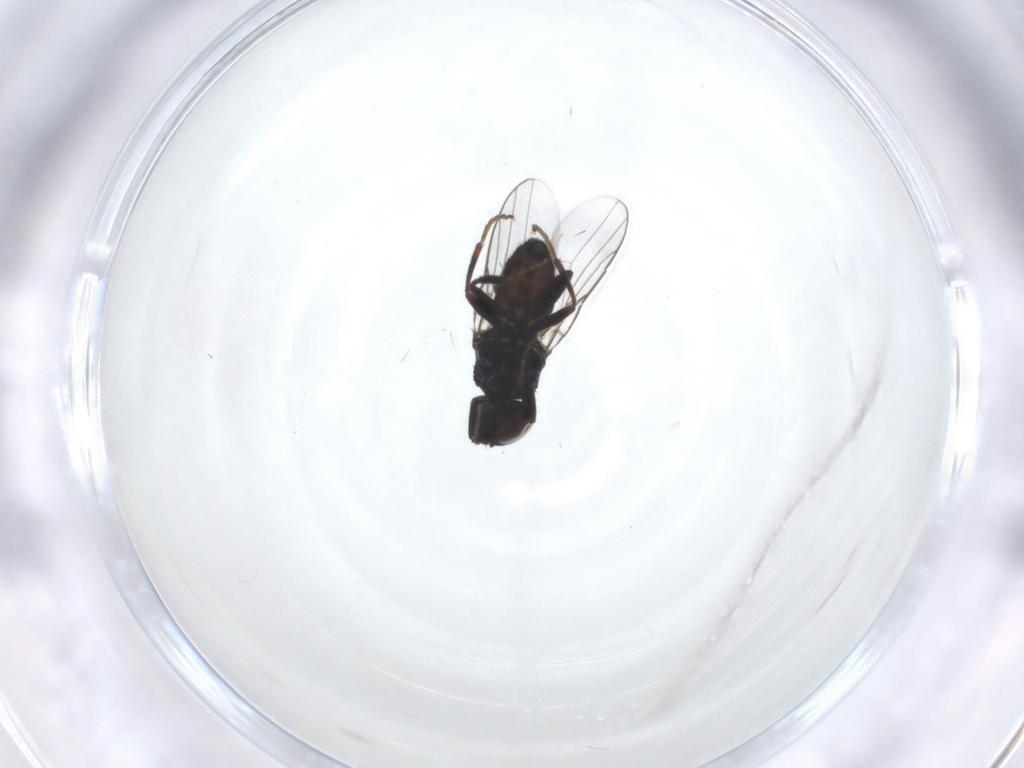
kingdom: Animalia
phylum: Arthropoda
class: Insecta
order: Diptera
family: Chloropidae
